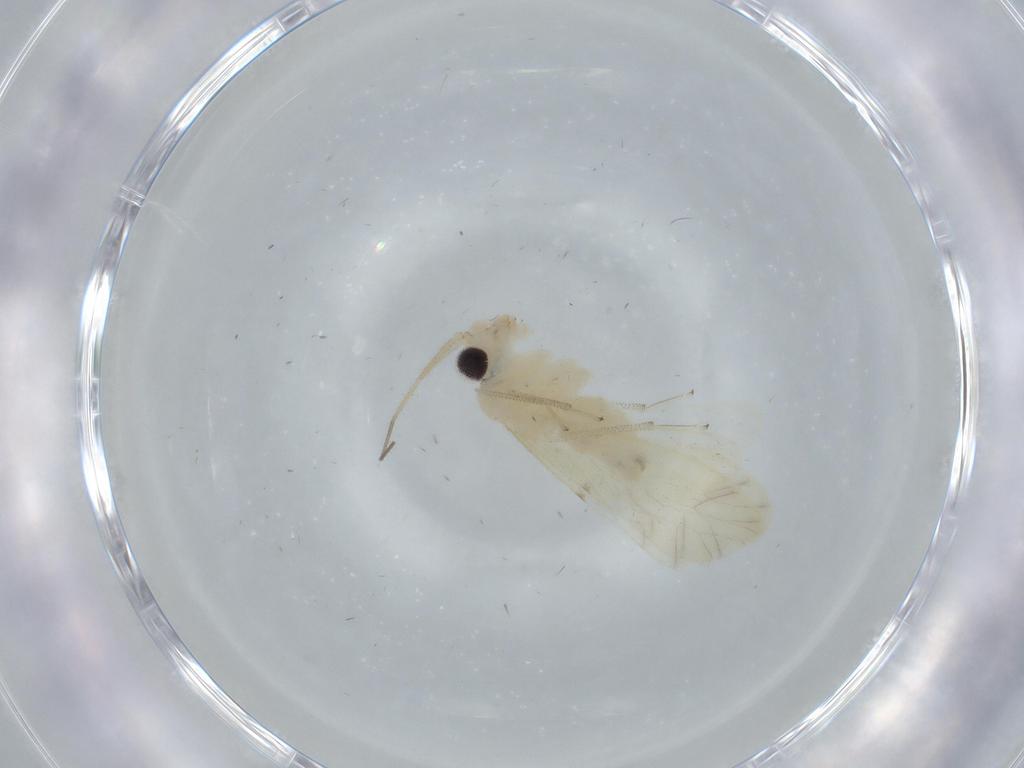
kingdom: Animalia
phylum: Arthropoda
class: Insecta
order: Psocodea
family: Caeciliusidae
